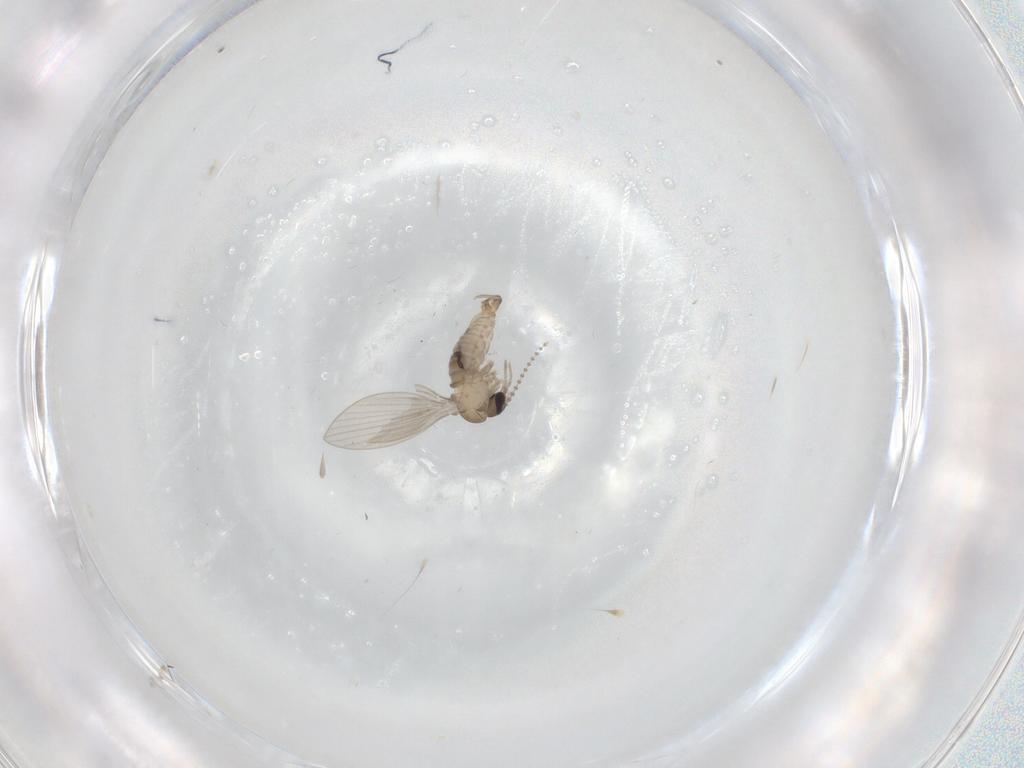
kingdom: Animalia
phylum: Arthropoda
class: Insecta
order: Diptera
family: Psychodidae
